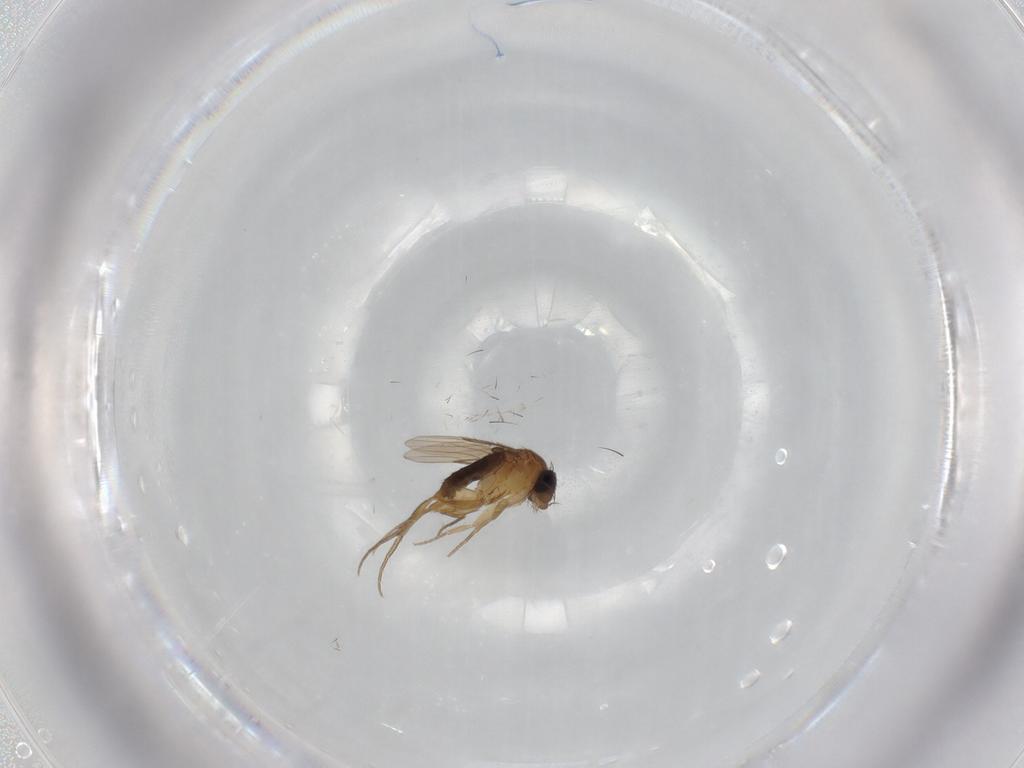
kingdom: Animalia
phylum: Arthropoda
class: Insecta
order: Diptera
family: Phoridae
